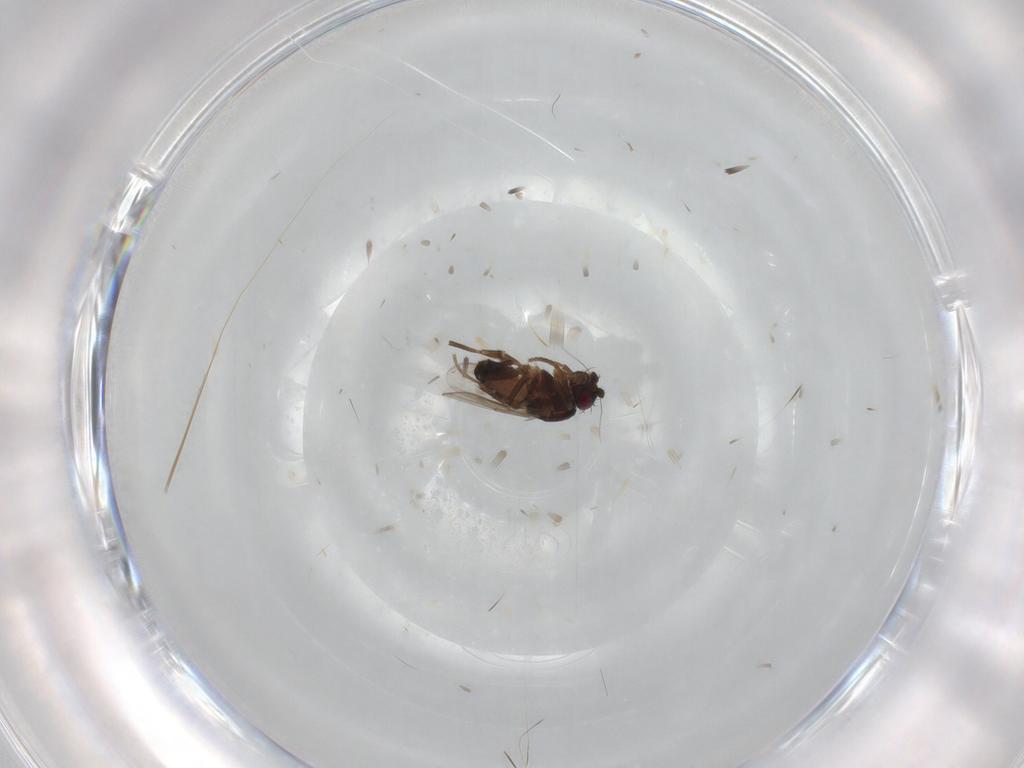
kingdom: Animalia
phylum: Arthropoda
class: Insecta
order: Diptera
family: Sphaeroceridae
